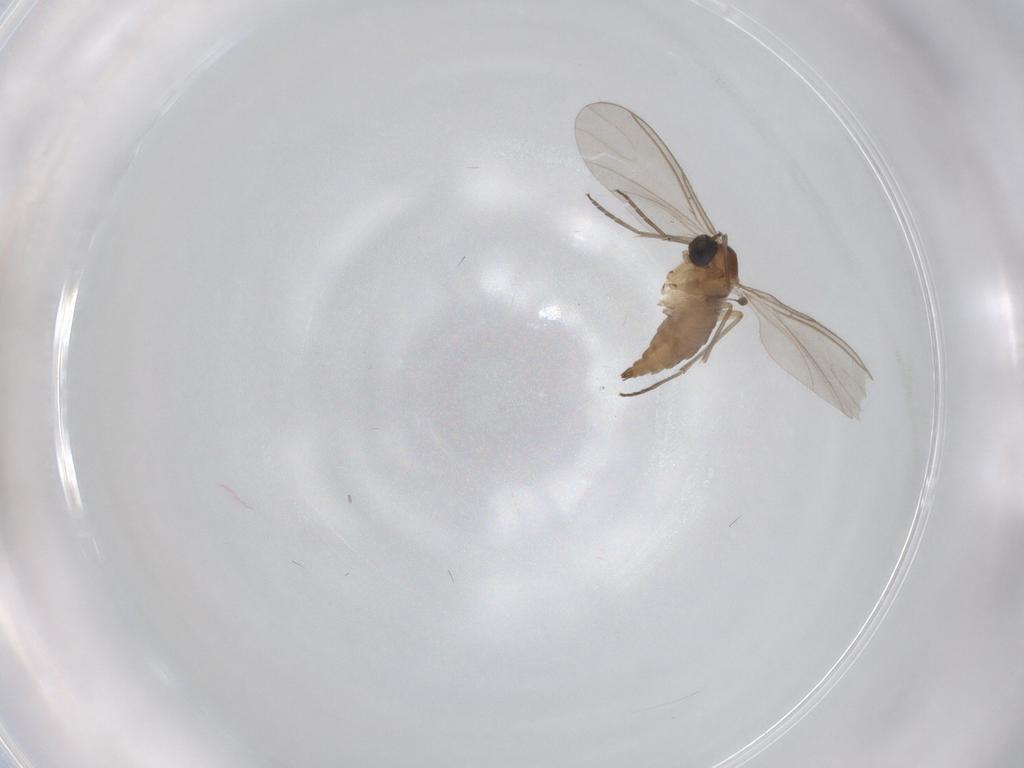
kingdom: Animalia
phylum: Arthropoda
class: Insecta
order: Diptera
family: Sciaridae
